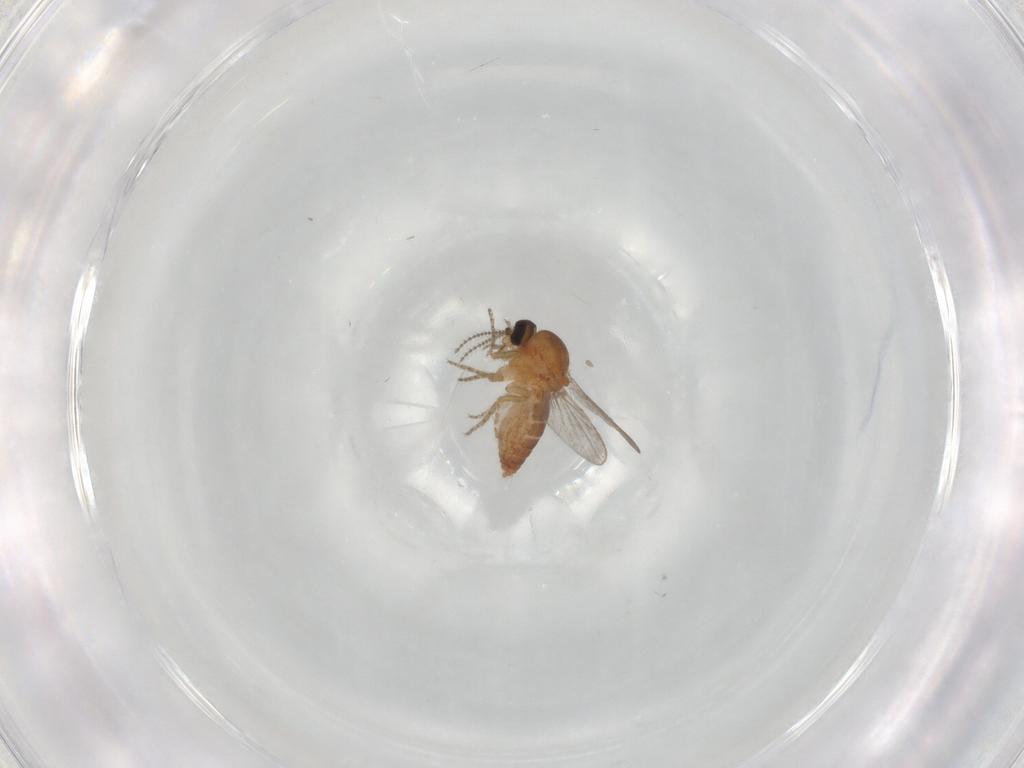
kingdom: Animalia
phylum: Arthropoda
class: Insecta
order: Diptera
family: Ceratopogonidae
